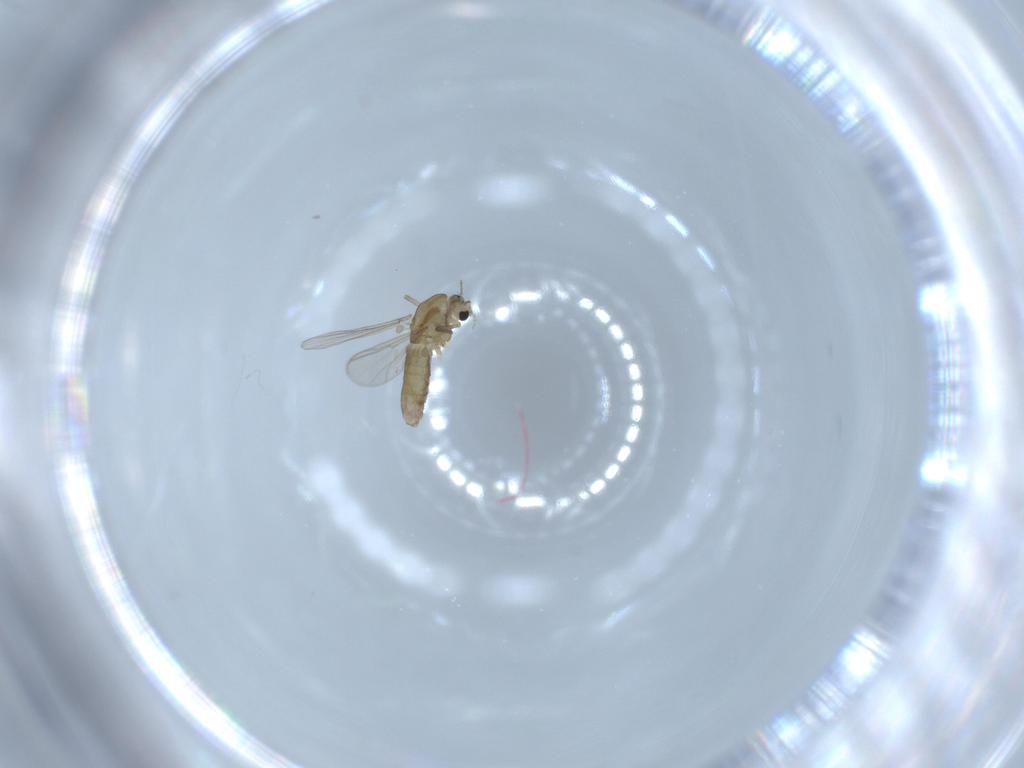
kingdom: Animalia
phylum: Arthropoda
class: Insecta
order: Diptera
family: Chironomidae
